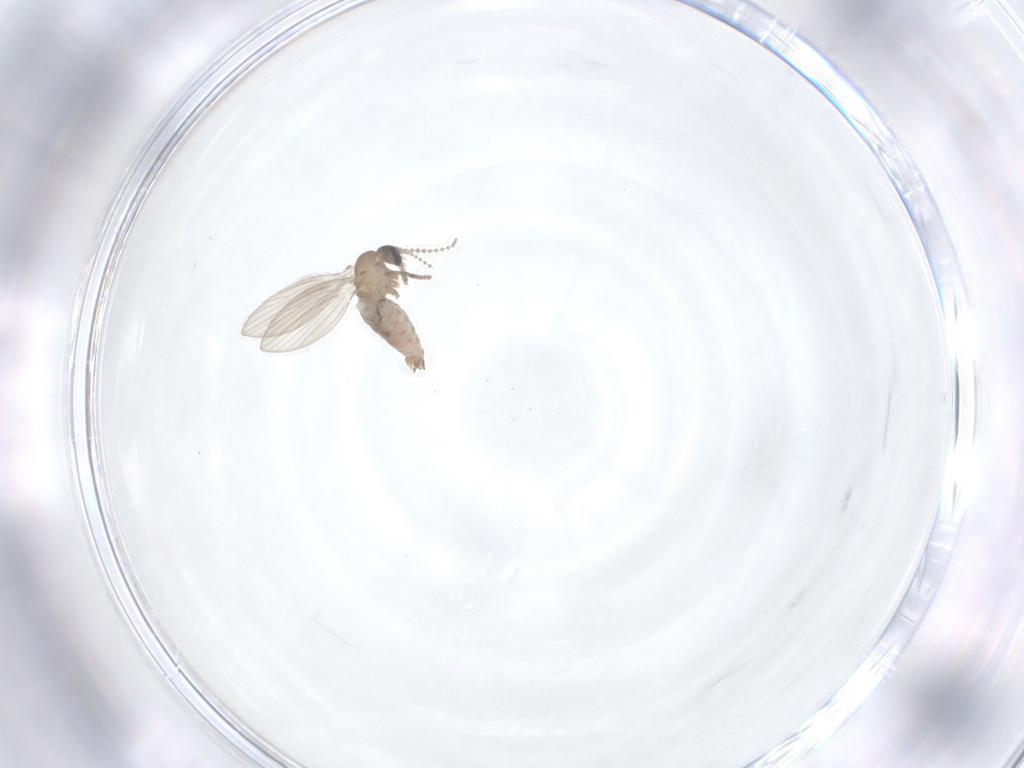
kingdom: Animalia
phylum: Arthropoda
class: Insecta
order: Diptera
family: Psychodidae
